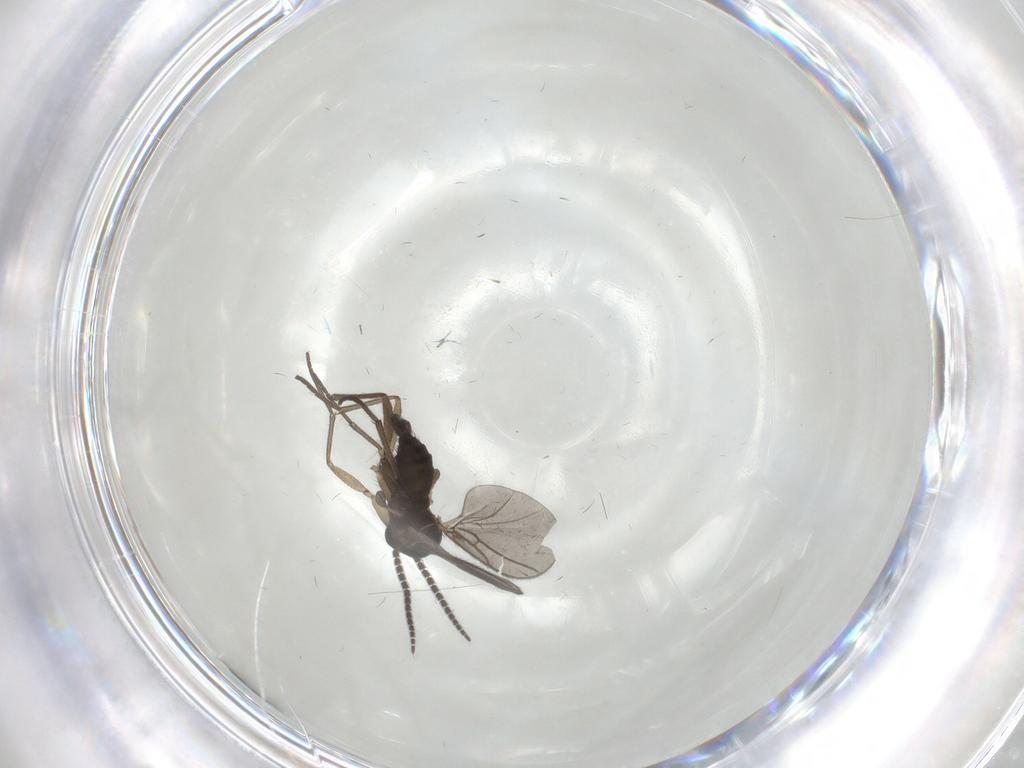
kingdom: Animalia
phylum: Arthropoda
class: Insecta
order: Diptera
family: Sciaridae
